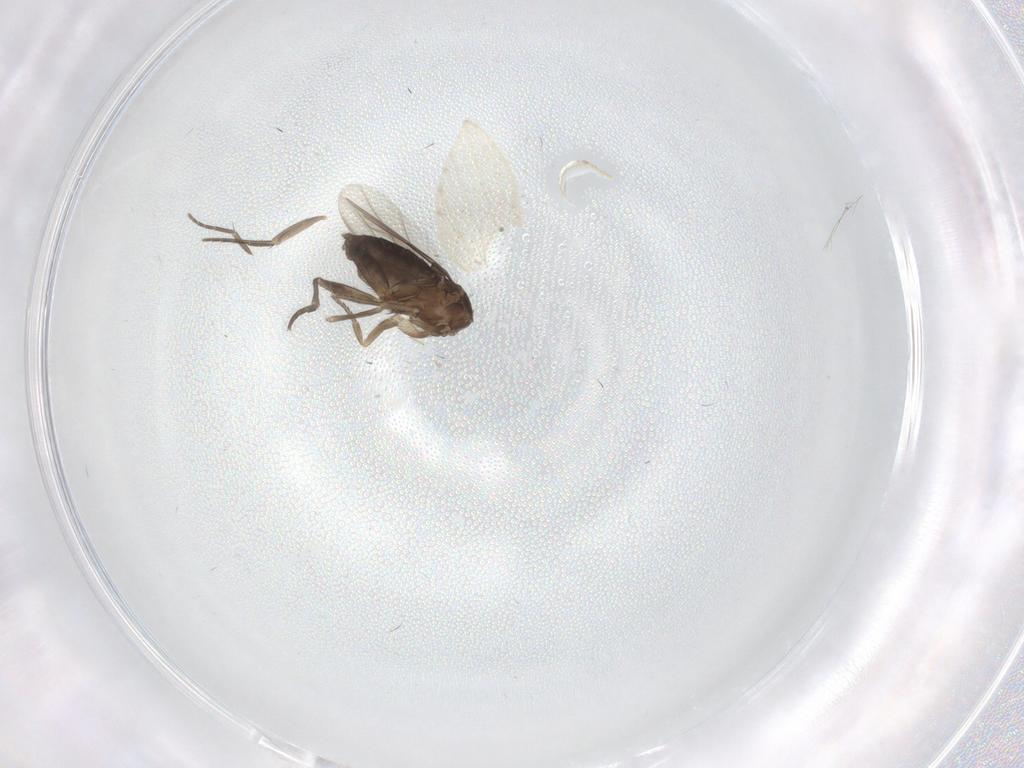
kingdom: Animalia
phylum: Arthropoda
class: Insecta
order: Diptera
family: Phoridae
